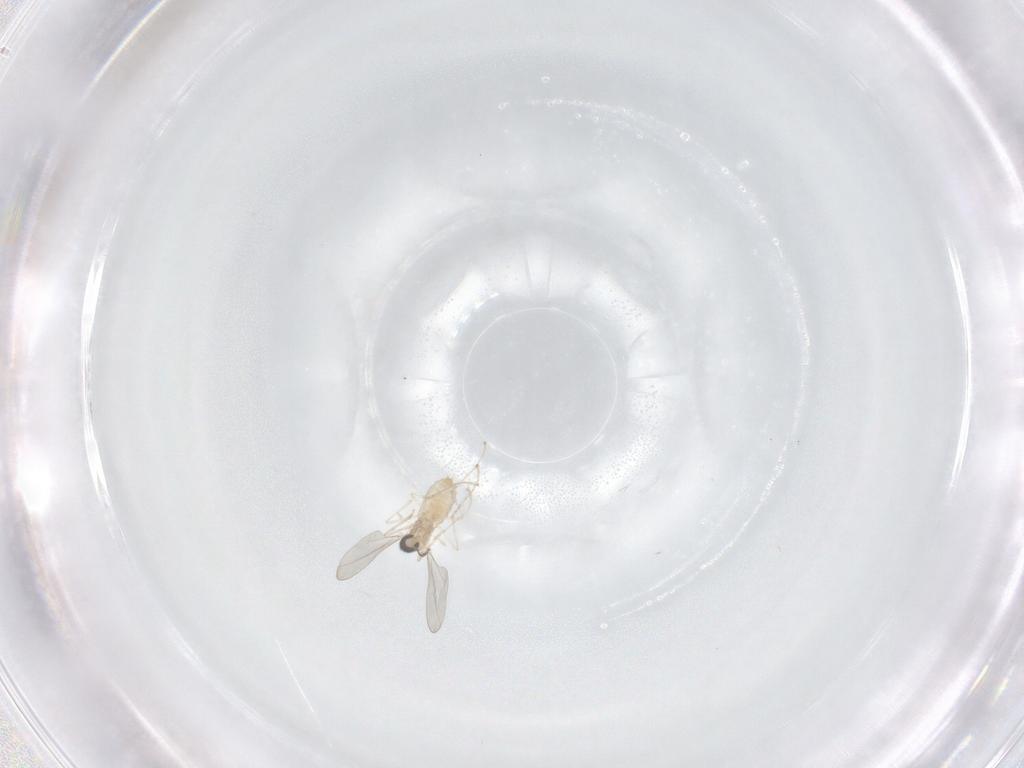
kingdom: Animalia
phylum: Arthropoda
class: Insecta
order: Diptera
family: Cecidomyiidae
